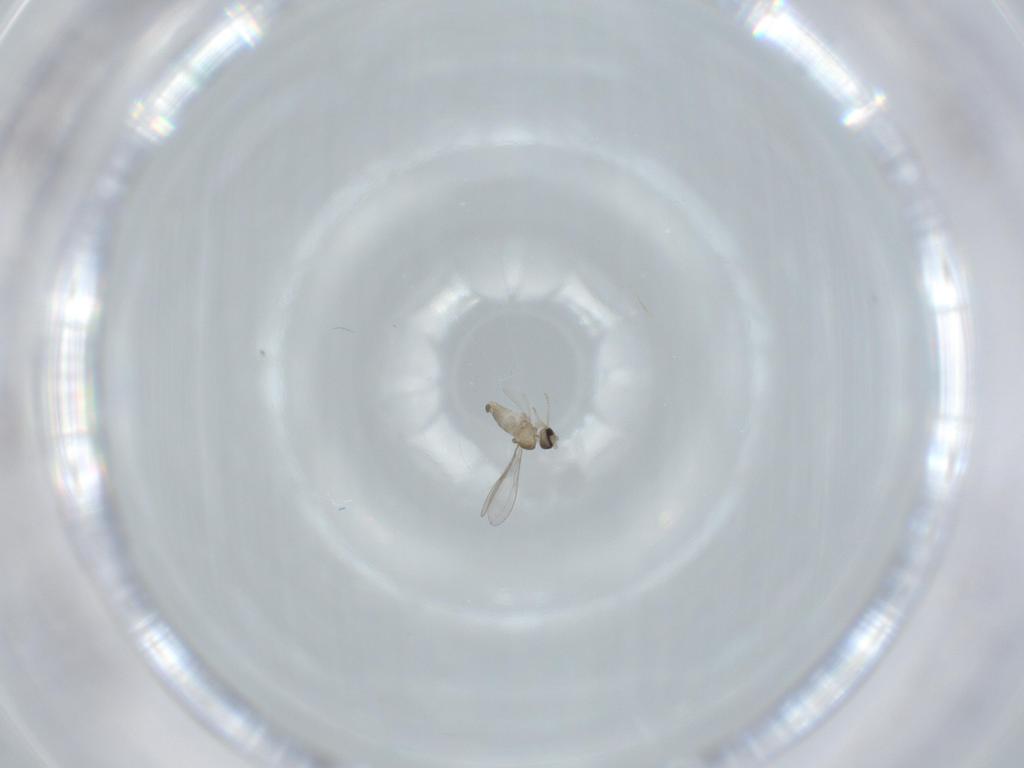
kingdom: Animalia
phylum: Arthropoda
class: Insecta
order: Diptera
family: Cecidomyiidae
